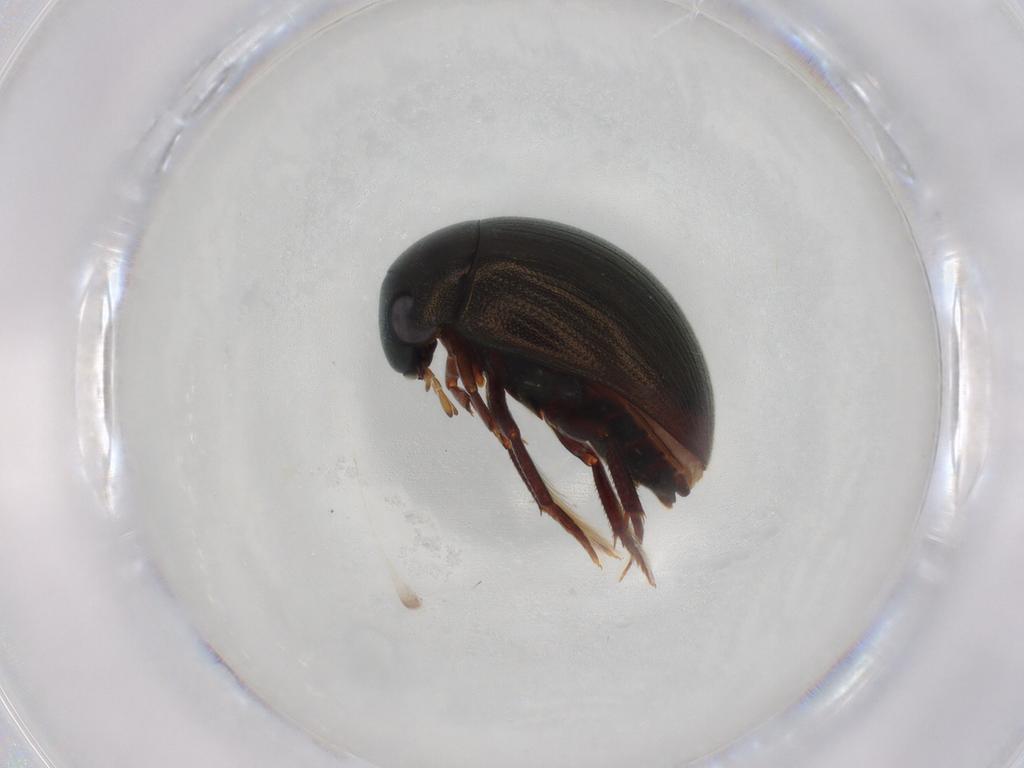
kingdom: Animalia
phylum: Arthropoda
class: Insecta
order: Coleoptera
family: Carabidae
